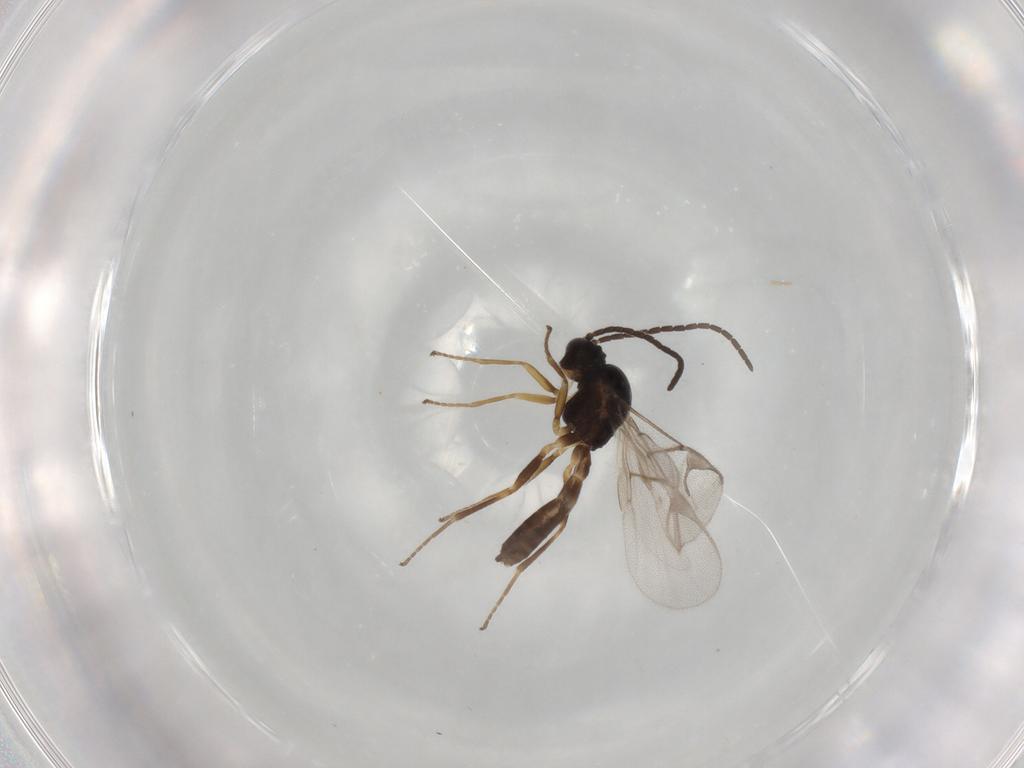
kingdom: Animalia
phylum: Arthropoda
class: Insecta
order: Hymenoptera
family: Braconidae
